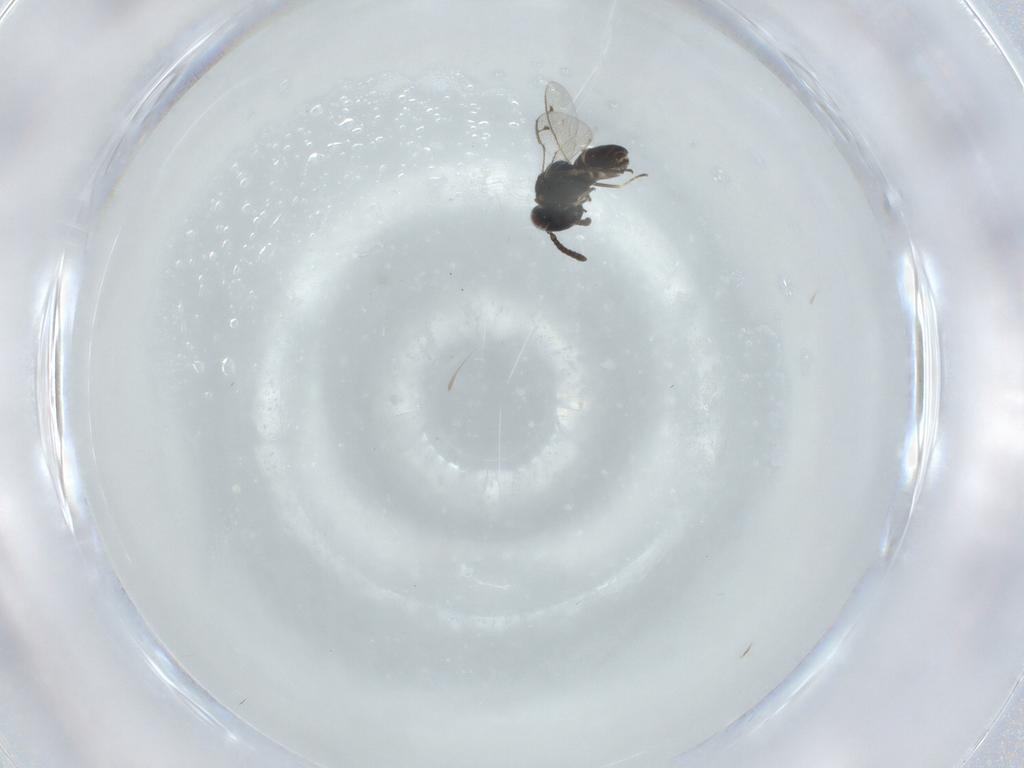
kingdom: Animalia
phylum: Arthropoda
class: Insecta
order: Hymenoptera
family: Pteromalidae
